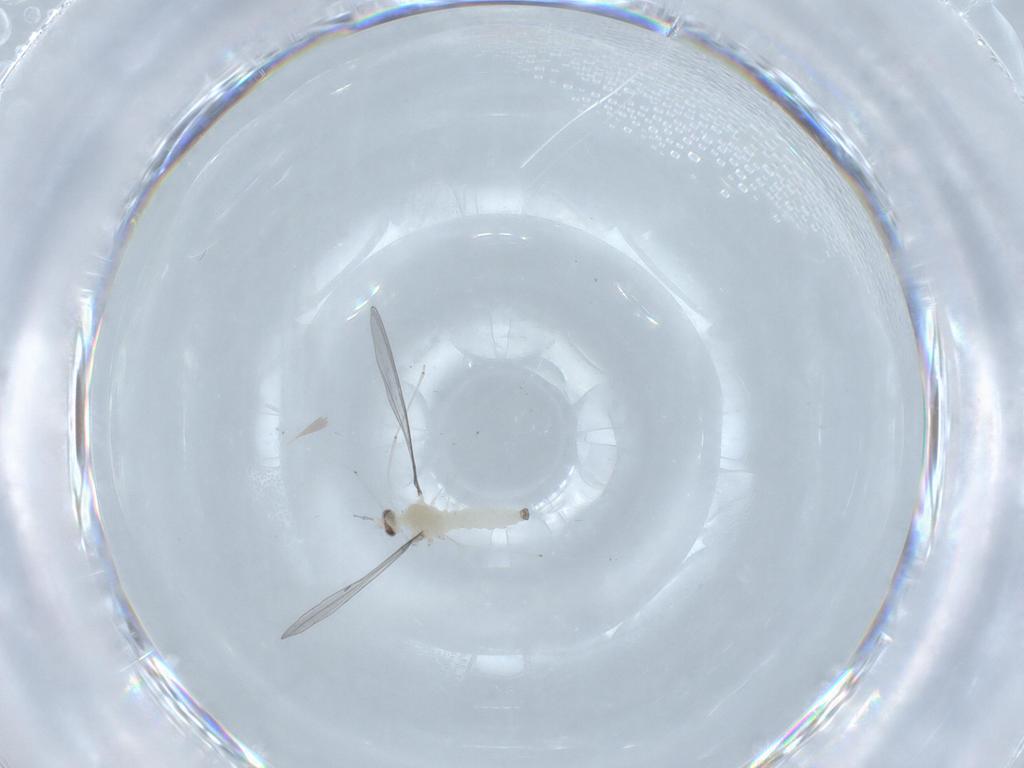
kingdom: Animalia
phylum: Arthropoda
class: Insecta
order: Diptera
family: Cecidomyiidae
